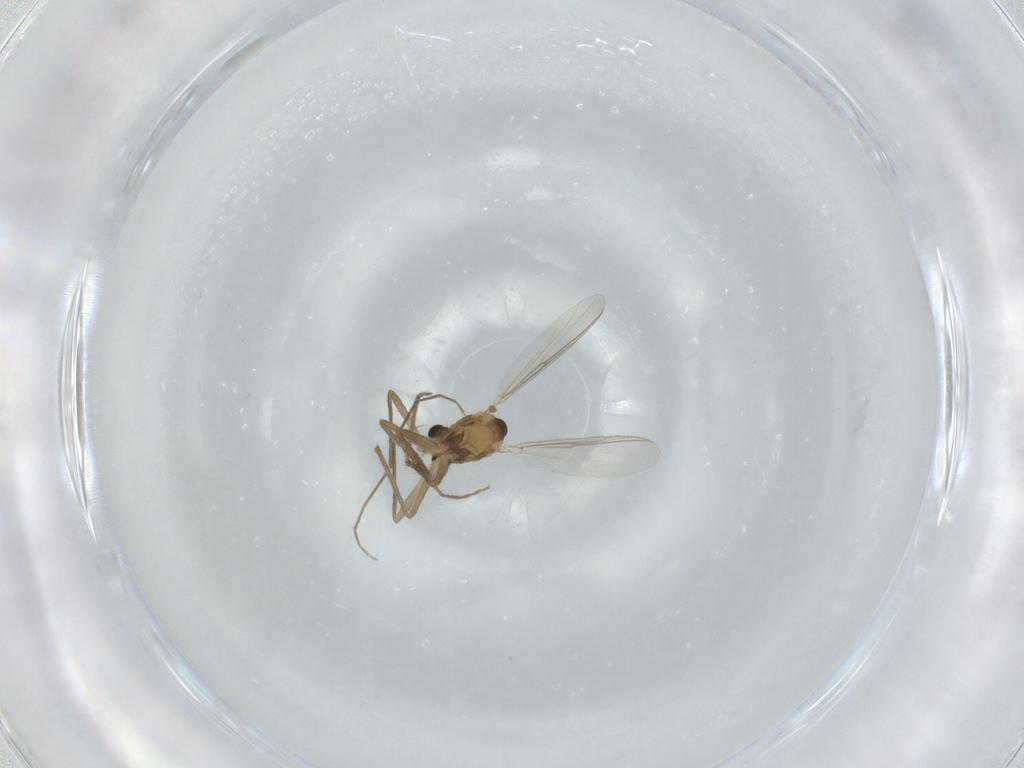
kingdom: Animalia
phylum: Arthropoda
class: Insecta
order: Diptera
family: Chironomidae
